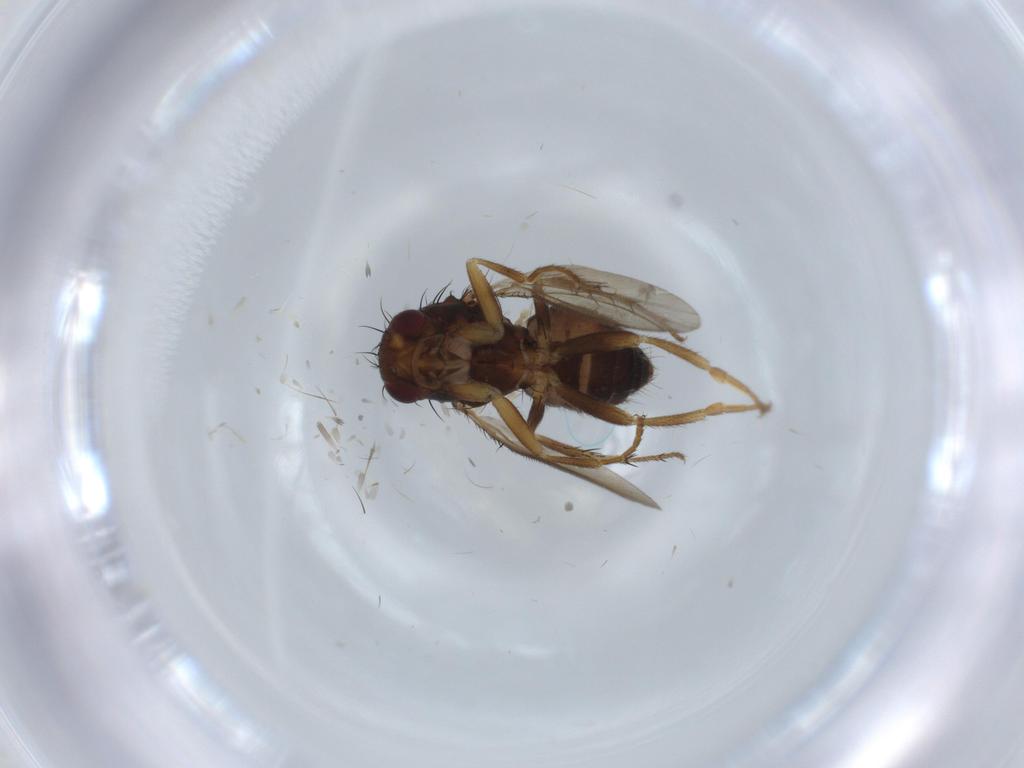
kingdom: Animalia
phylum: Arthropoda
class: Insecta
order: Diptera
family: Sphaeroceridae
